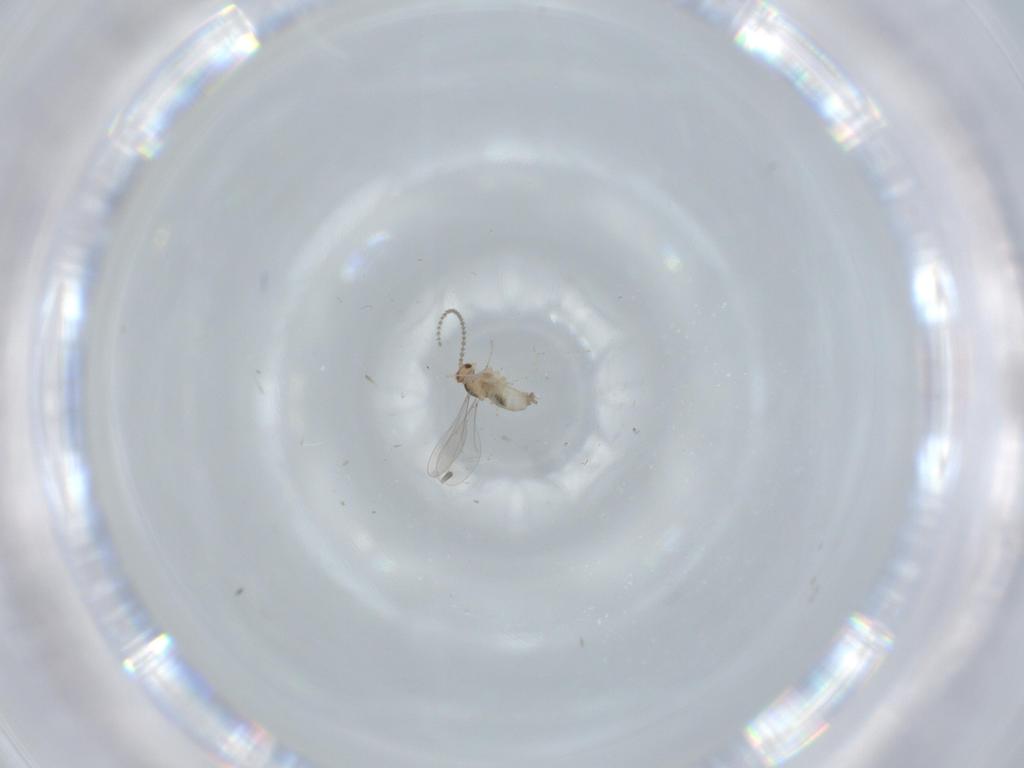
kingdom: Animalia
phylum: Arthropoda
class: Insecta
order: Diptera
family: Cecidomyiidae
